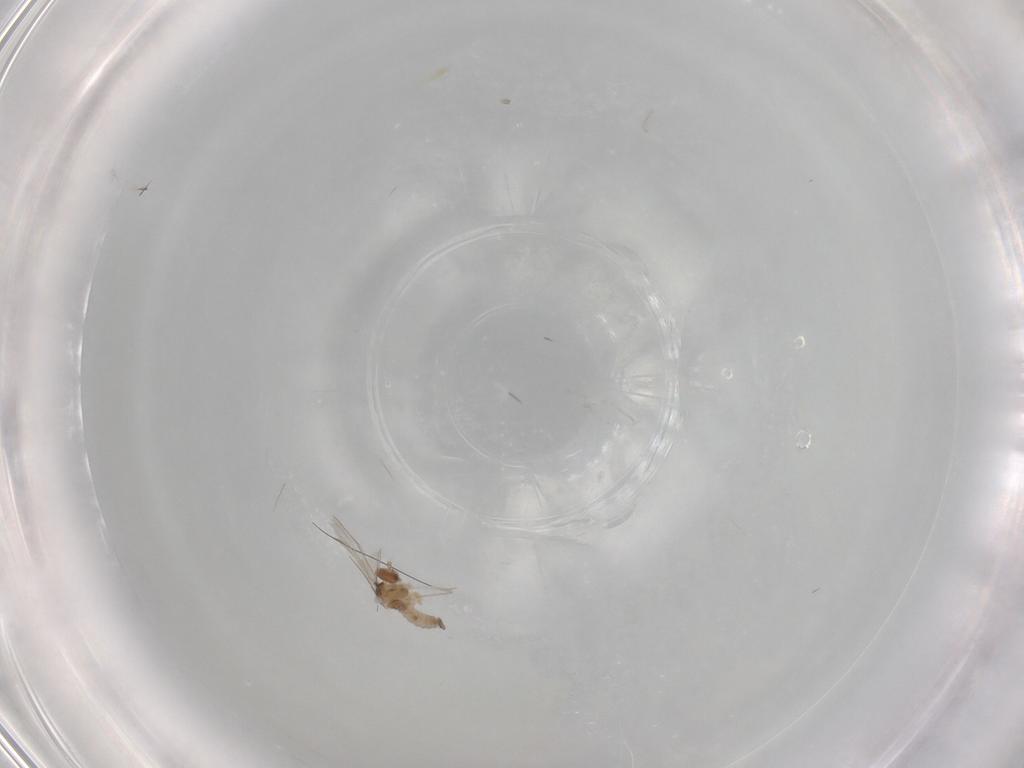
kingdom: Animalia
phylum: Arthropoda
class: Insecta
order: Diptera
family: Cecidomyiidae
